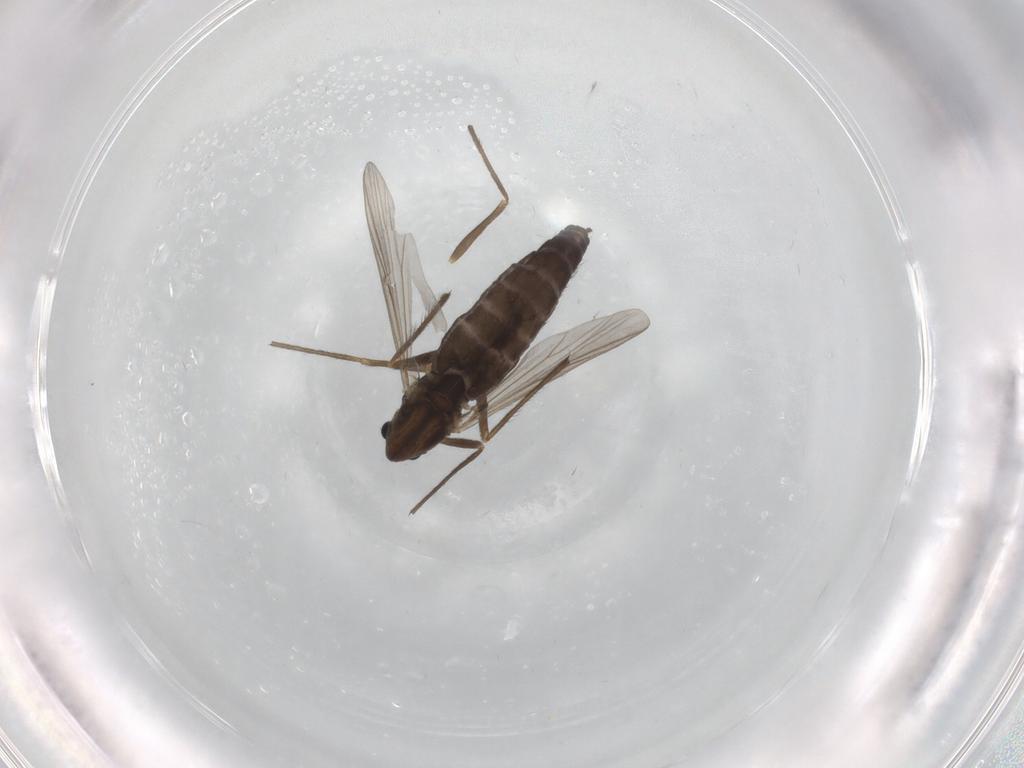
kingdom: Animalia
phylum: Arthropoda
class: Insecta
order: Diptera
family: Chironomidae
